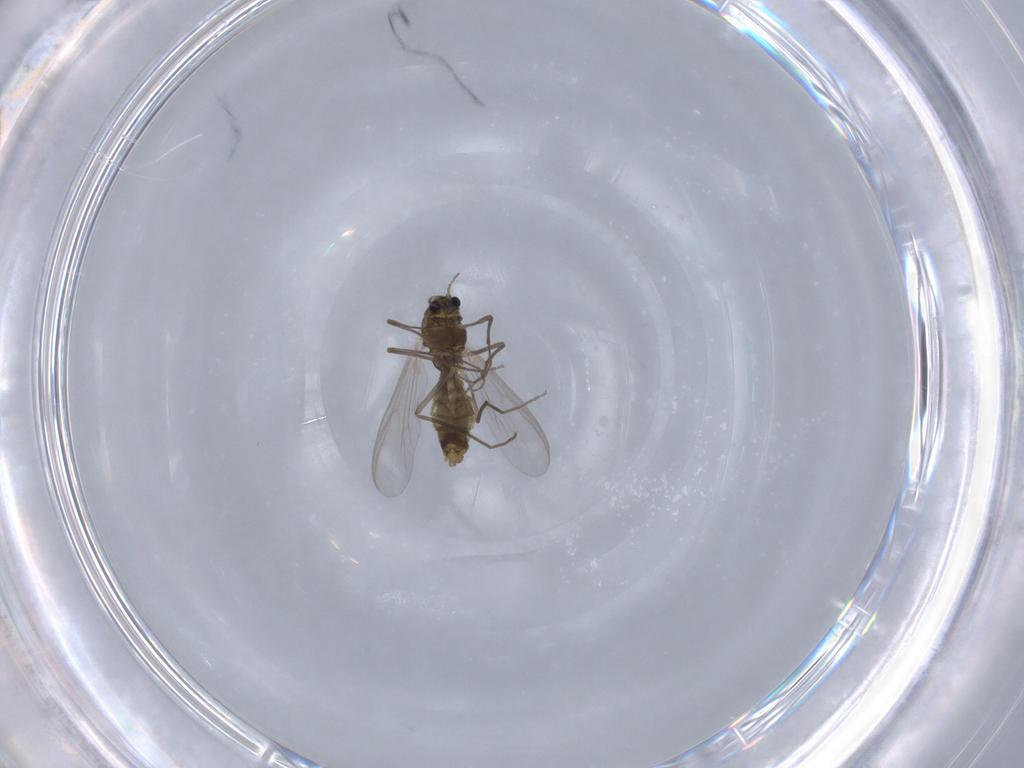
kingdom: Animalia
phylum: Arthropoda
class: Insecta
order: Diptera
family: Chironomidae
